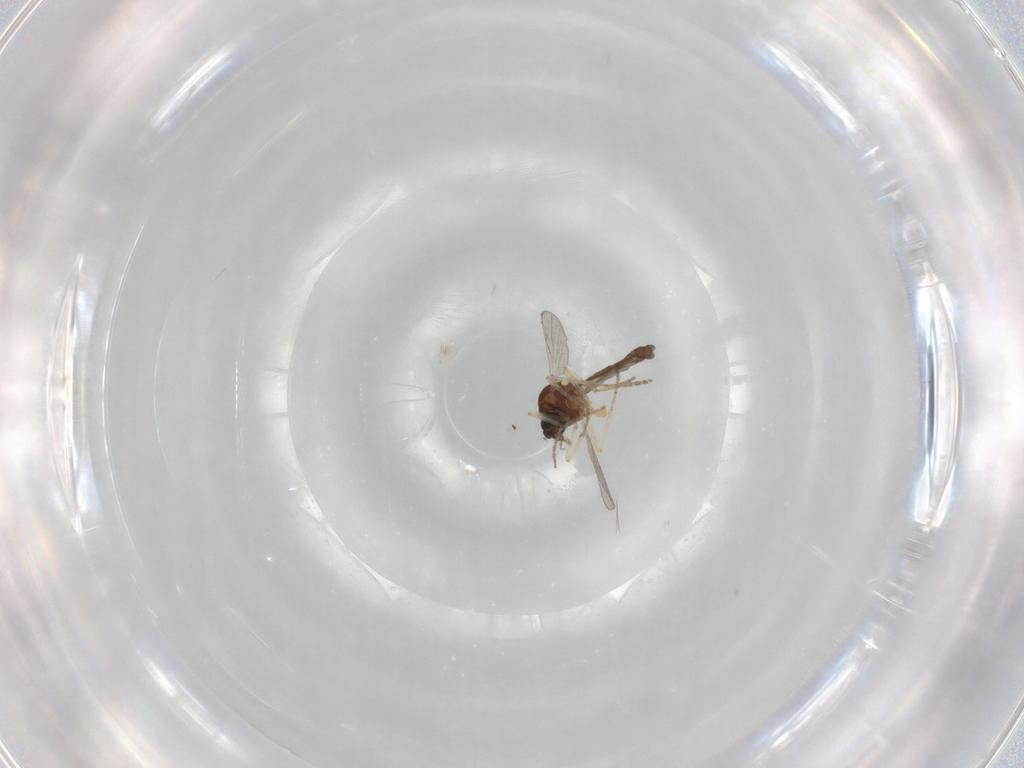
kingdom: Animalia
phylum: Arthropoda
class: Insecta
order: Diptera
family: Ceratopogonidae
